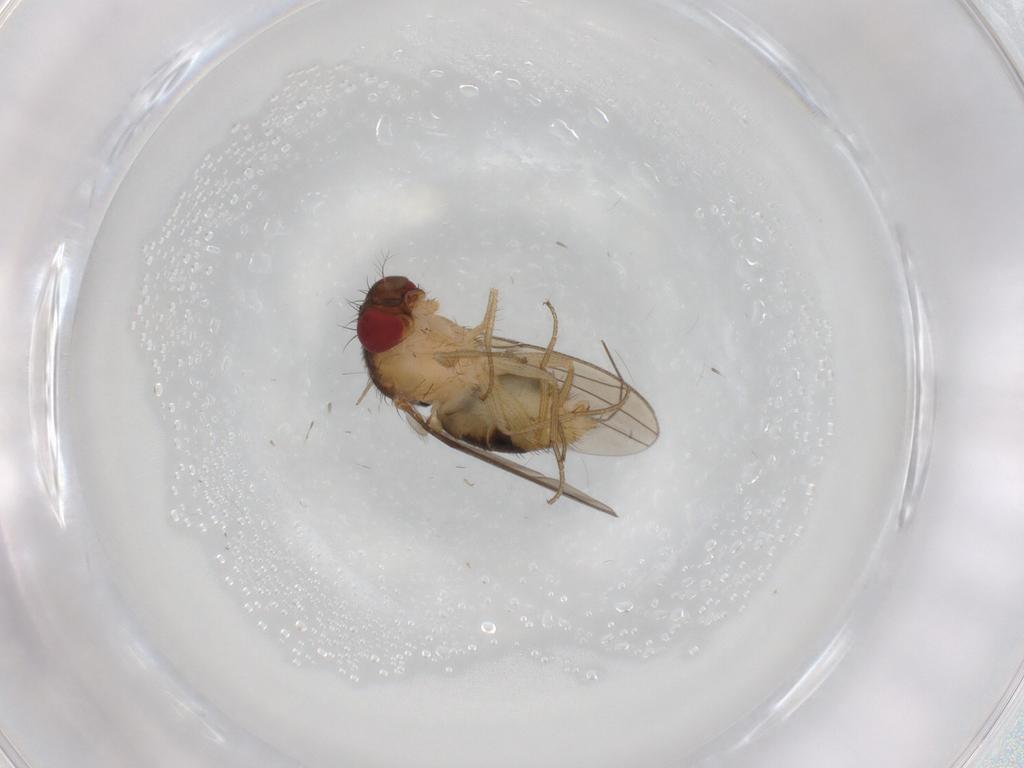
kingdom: Animalia
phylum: Arthropoda
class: Insecta
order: Diptera
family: Drosophilidae
